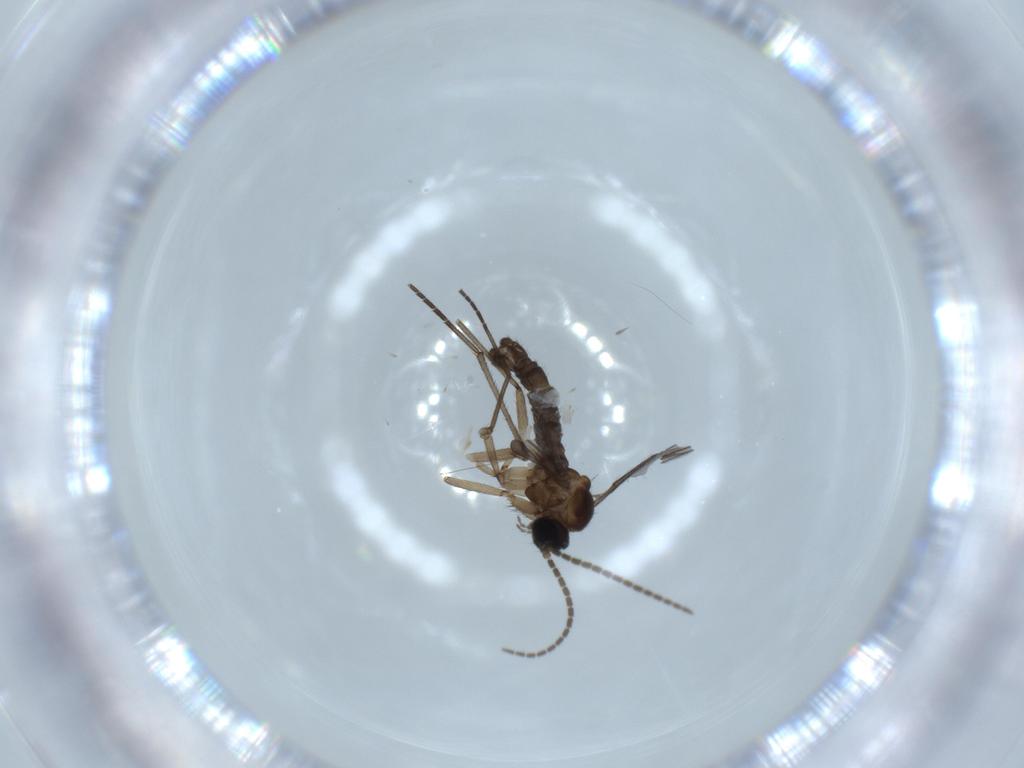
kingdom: Animalia
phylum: Arthropoda
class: Insecta
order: Diptera
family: Sciaridae
